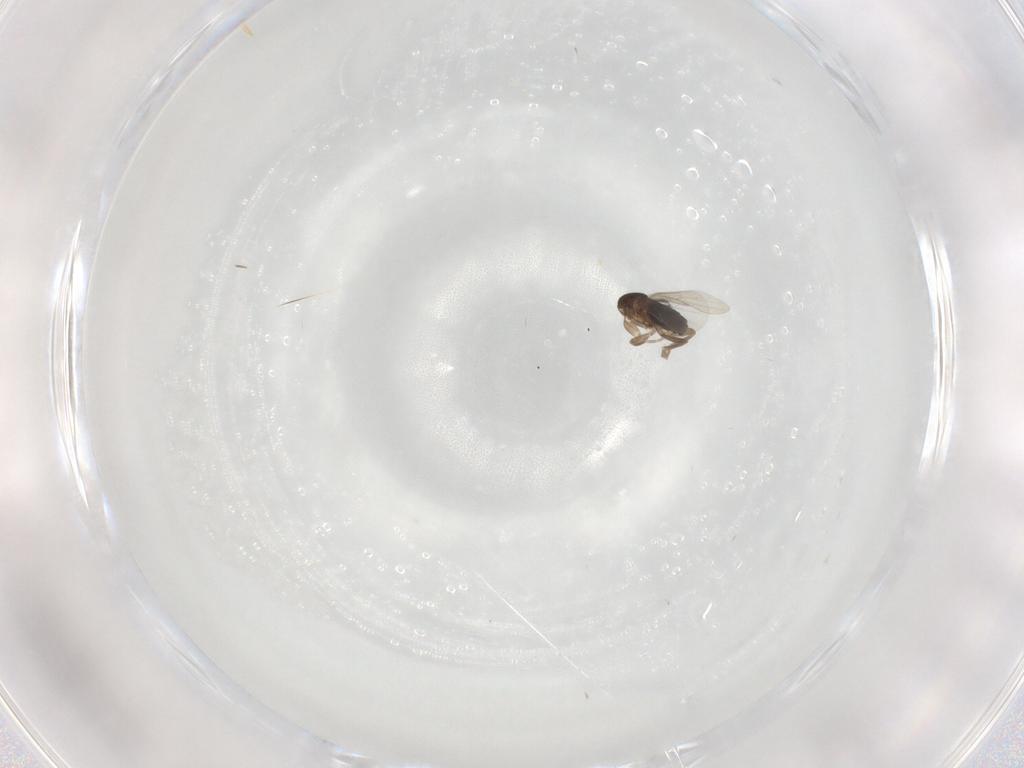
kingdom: Animalia
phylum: Arthropoda
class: Insecta
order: Diptera
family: Phoridae
